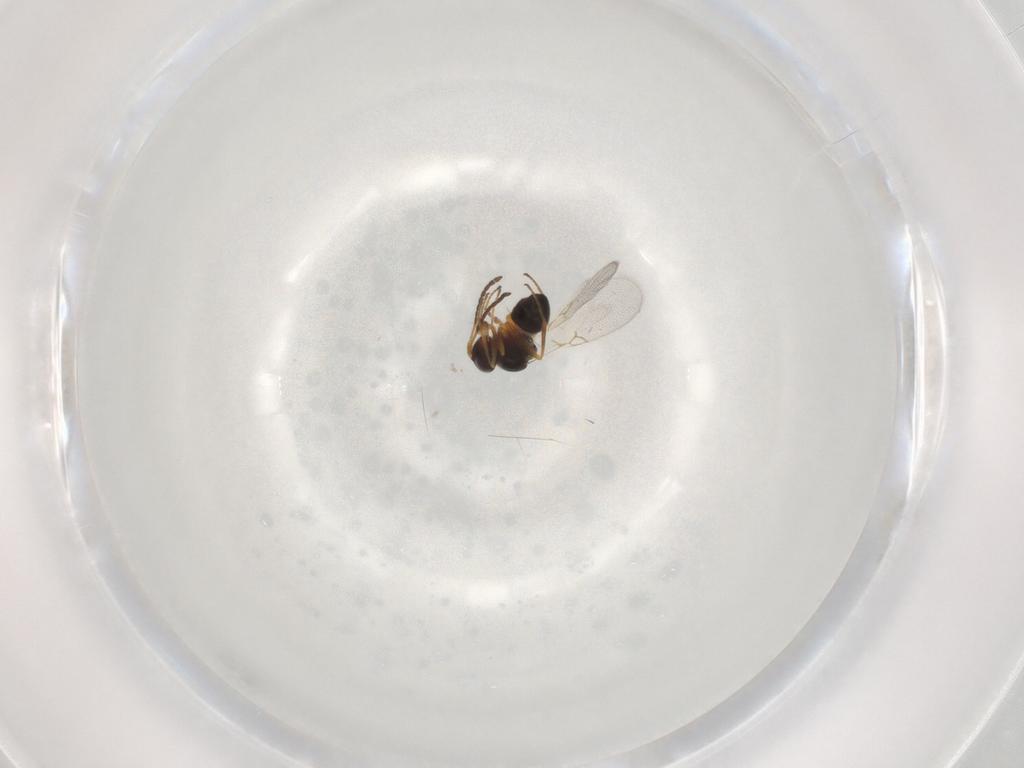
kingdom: Animalia
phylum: Arthropoda
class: Insecta
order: Hymenoptera
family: Figitidae
